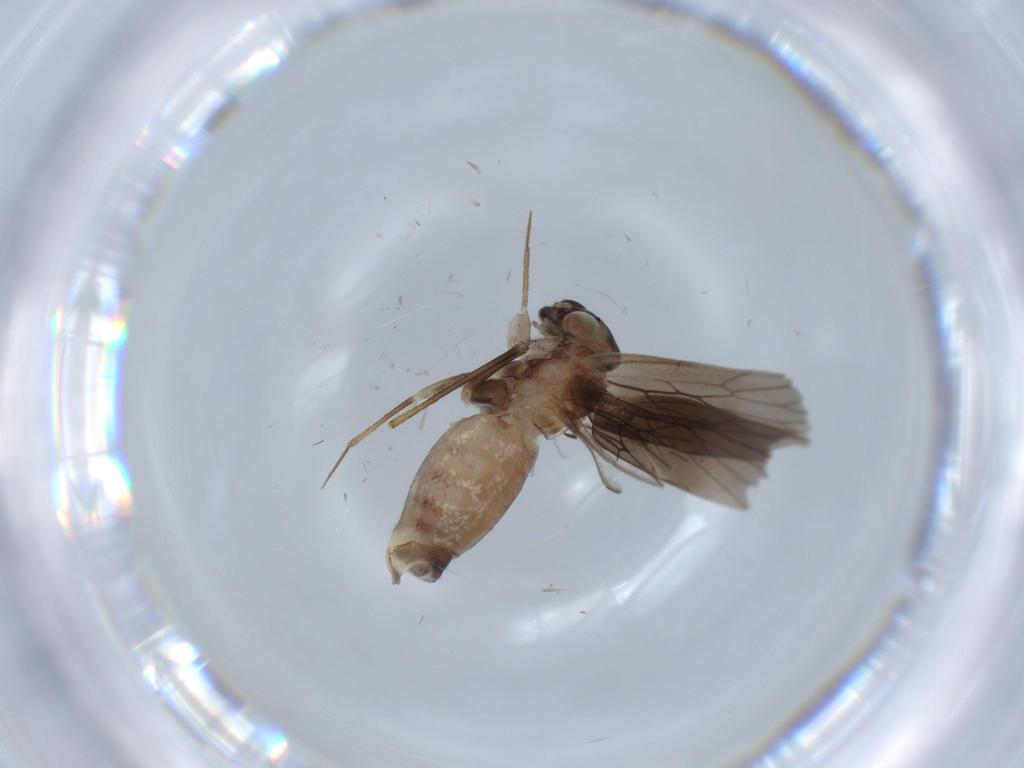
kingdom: Animalia
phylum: Arthropoda
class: Insecta
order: Psocodea
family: Lepidopsocidae
